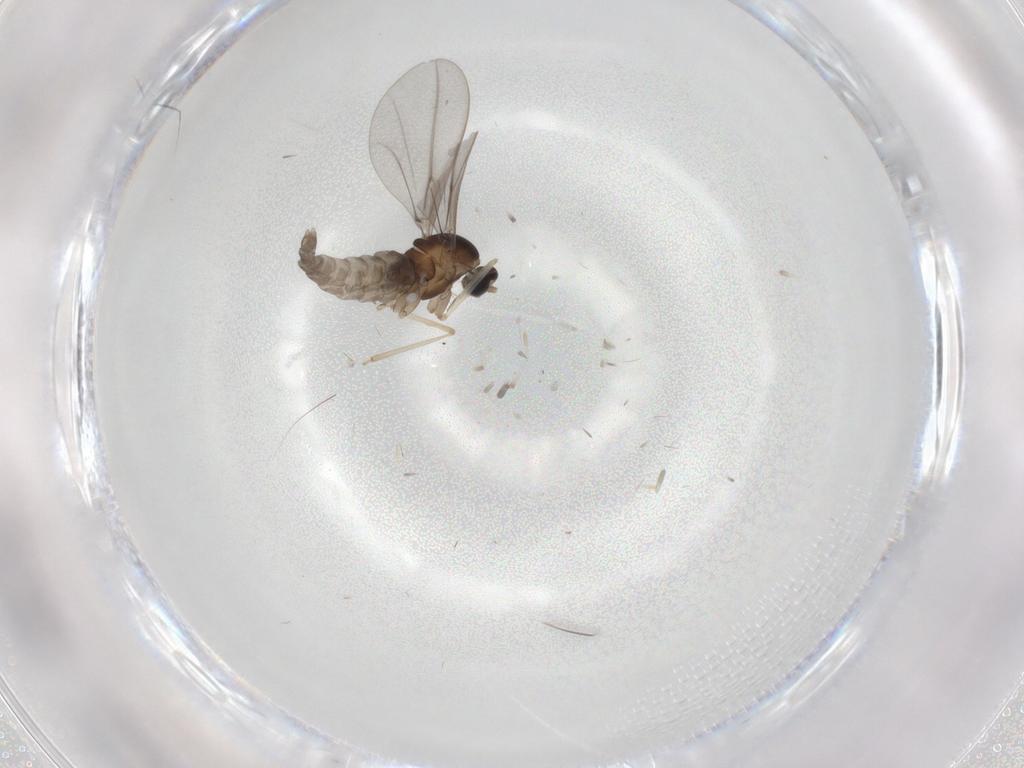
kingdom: Animalia
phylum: Arthropoda
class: Insecta
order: Diptera
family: Cecidomyiidae
